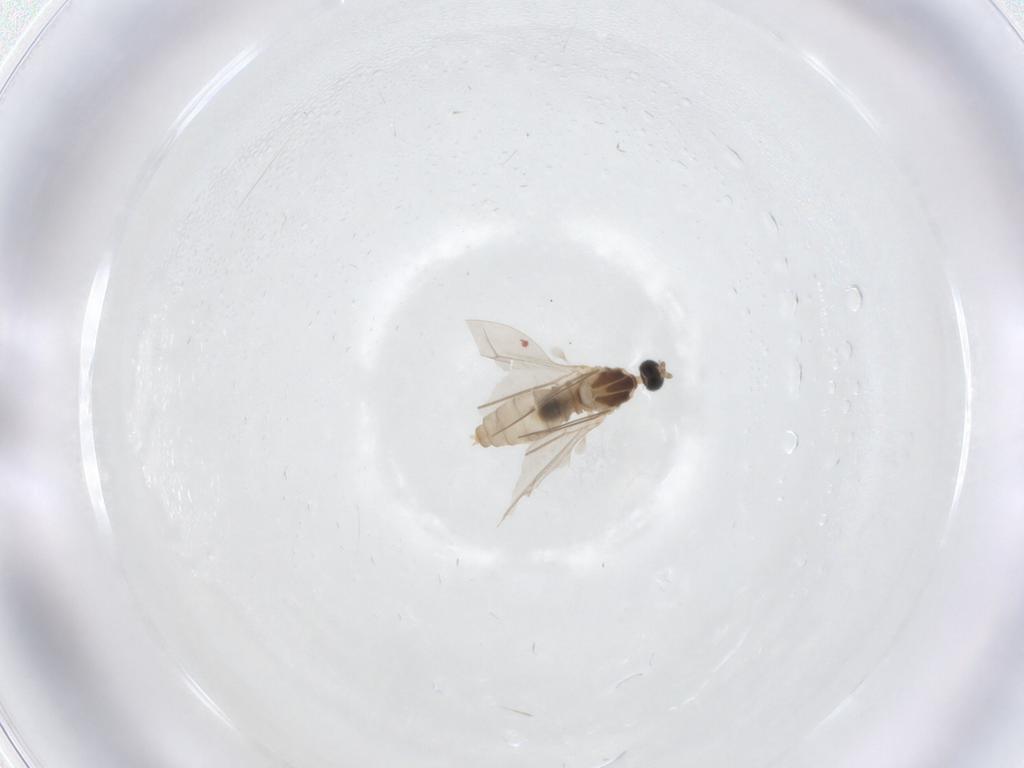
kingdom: Animalia
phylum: Arthropoda
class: Insecta
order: Diptera
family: Cecidomyiidae
